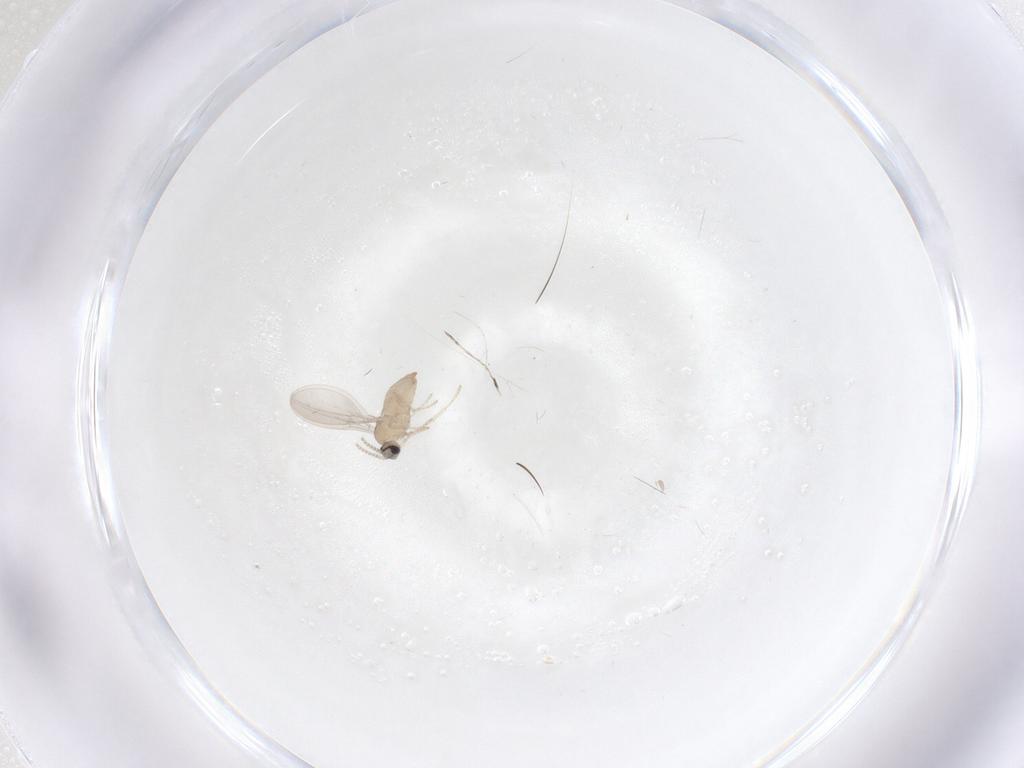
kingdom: Animalia
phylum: Arthropoda
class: Insecta
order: Diptera
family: Cecidomyiidae
